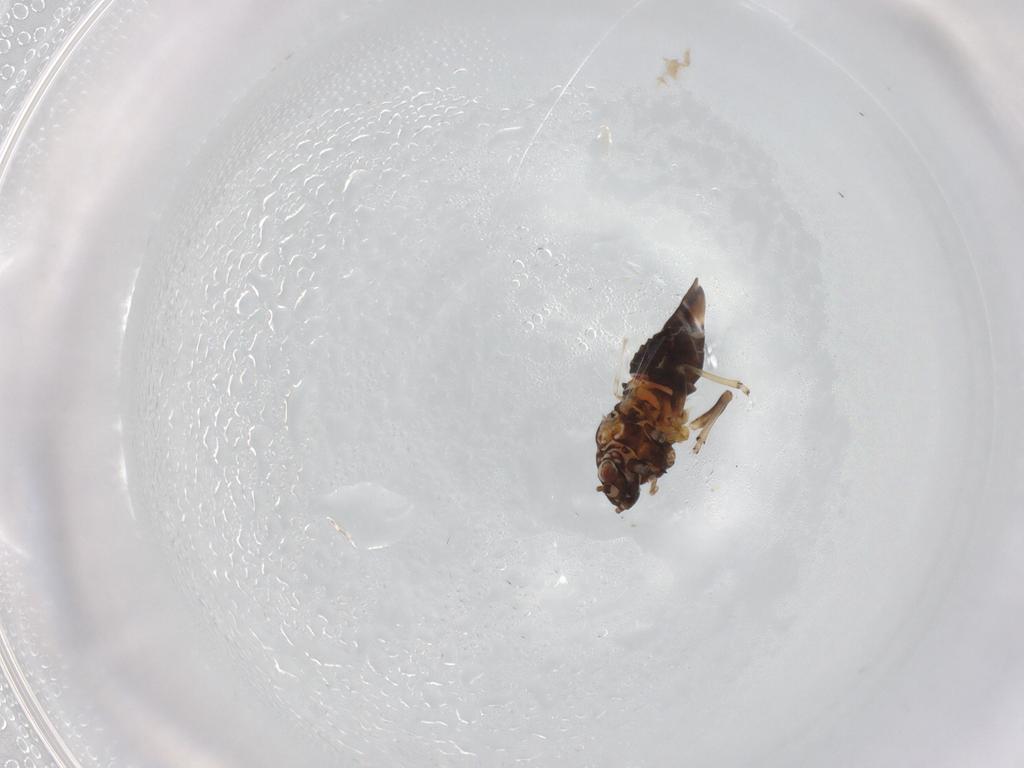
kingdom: Animalia
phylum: Arthropoda
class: Insecta
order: Hemiptera
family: Psyllidae
